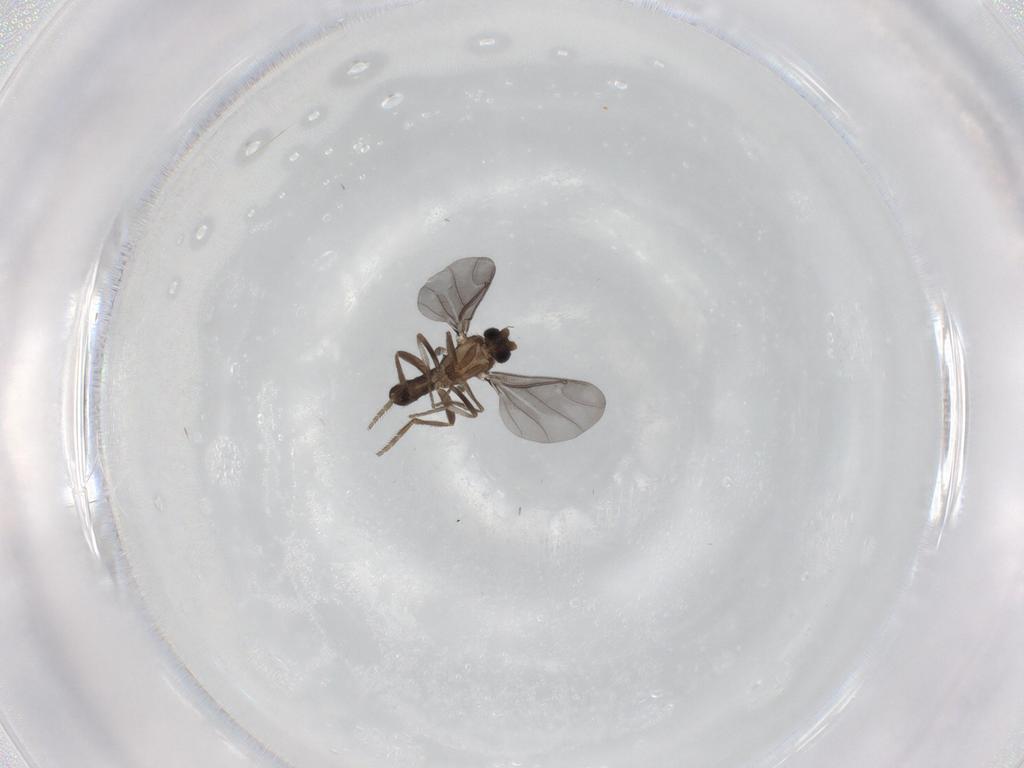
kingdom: Animalia
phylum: Arthropoda
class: Insecta
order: Diptera
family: Phoridae
